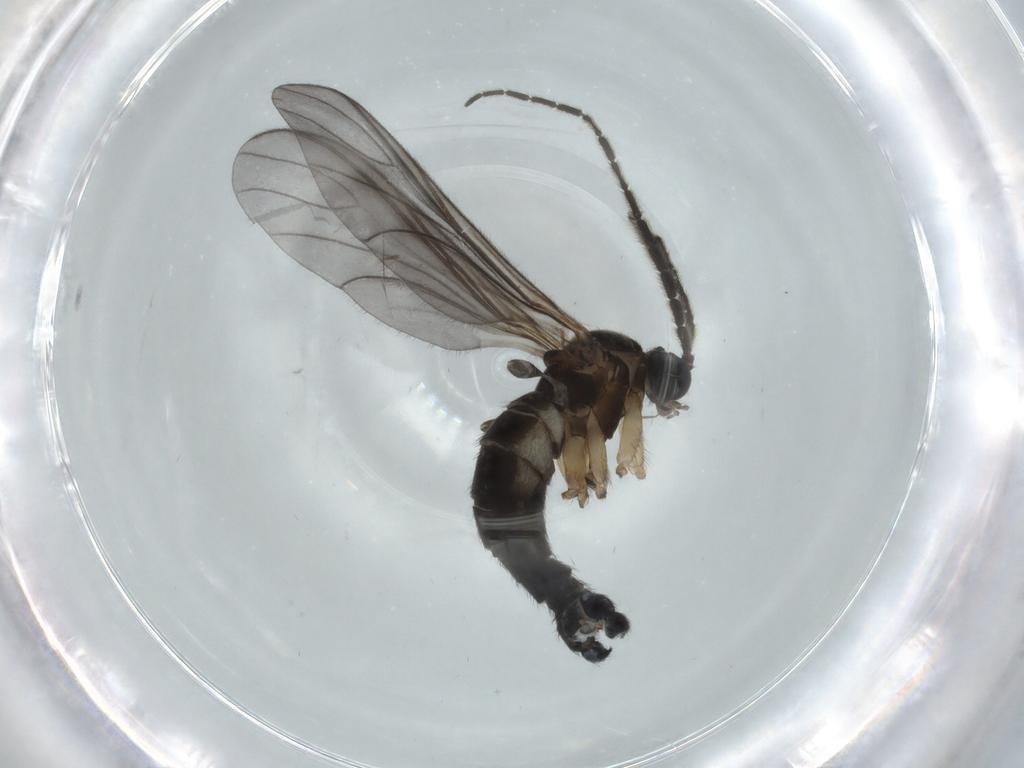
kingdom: Animalia
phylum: Arthropoda
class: Insecta
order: Diptera
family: Sciaridae
